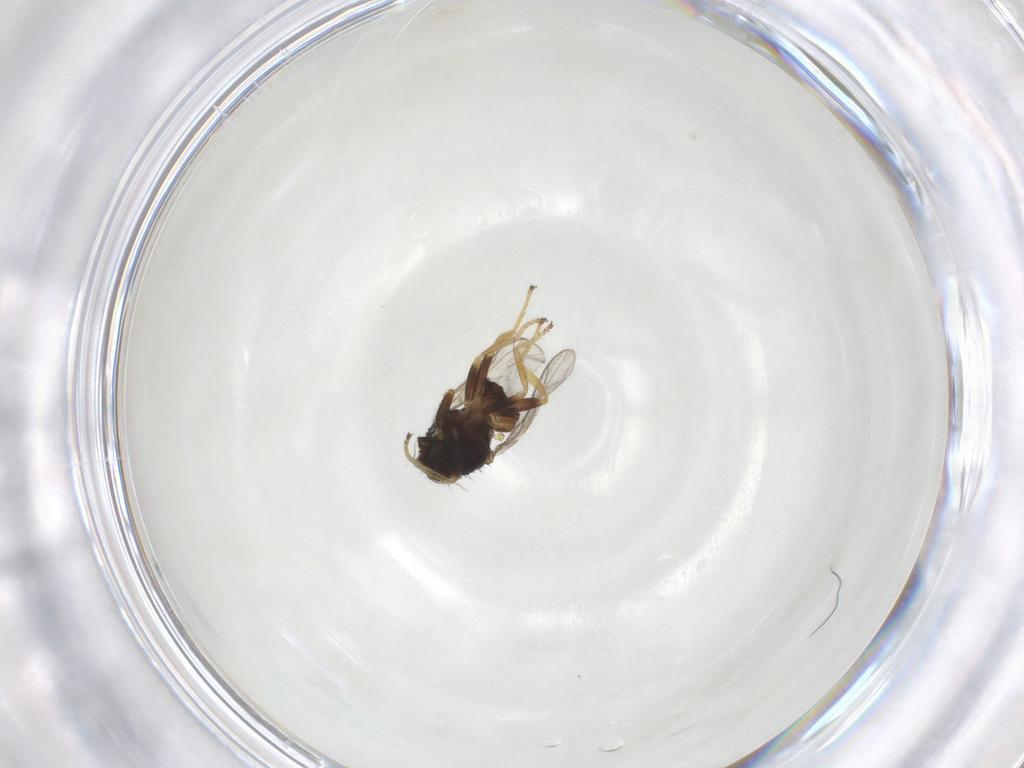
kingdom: Animalia
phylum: Arthropoda
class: Insecta
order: Diptera
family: Chloropidae
